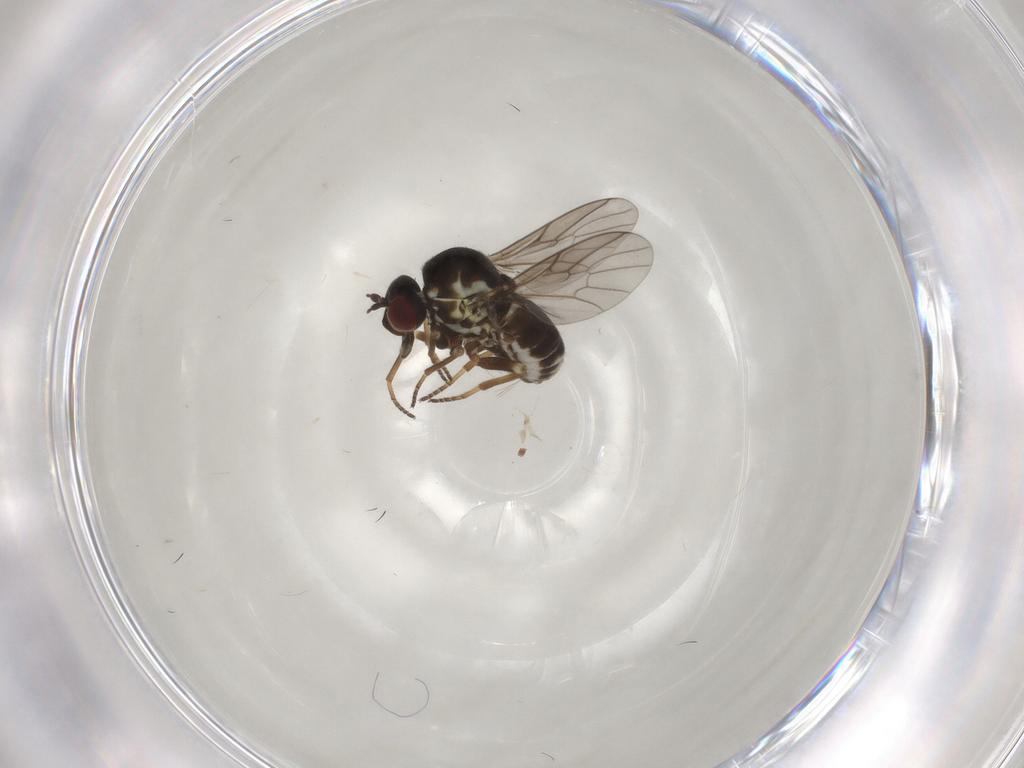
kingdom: Animalia
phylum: Arthropoda
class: Insecta
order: Diptera
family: Bombyliidae
